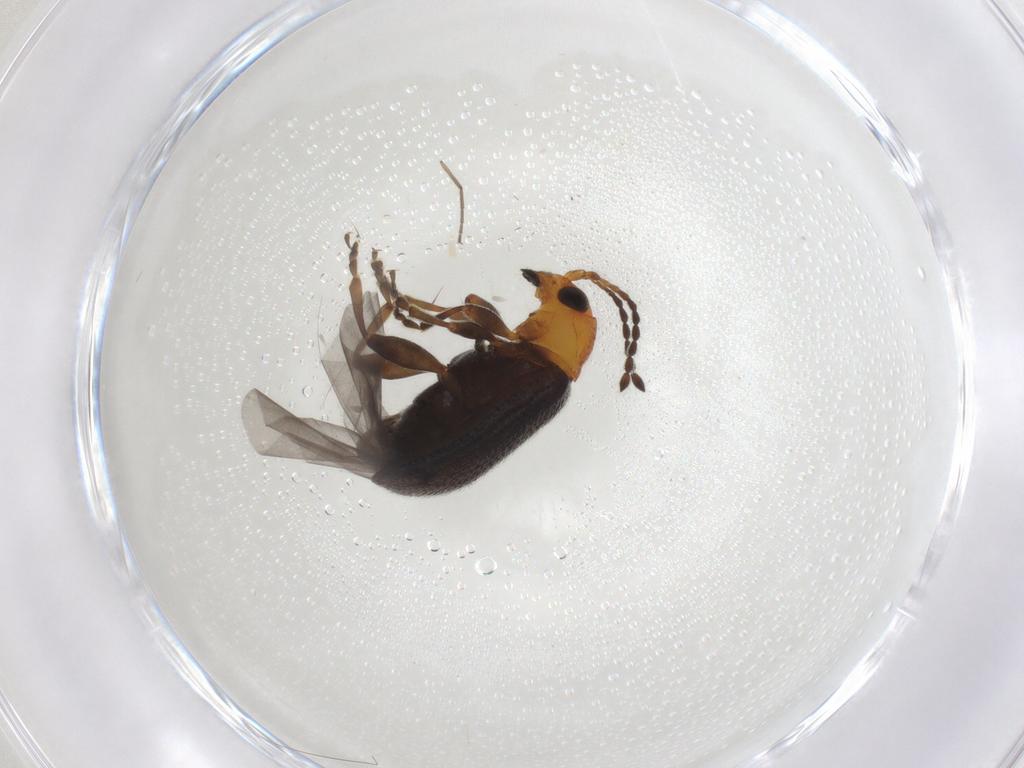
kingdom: Animalia
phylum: Arthropoda
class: Insecta
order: Coleoptera
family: Chrysomelidae
